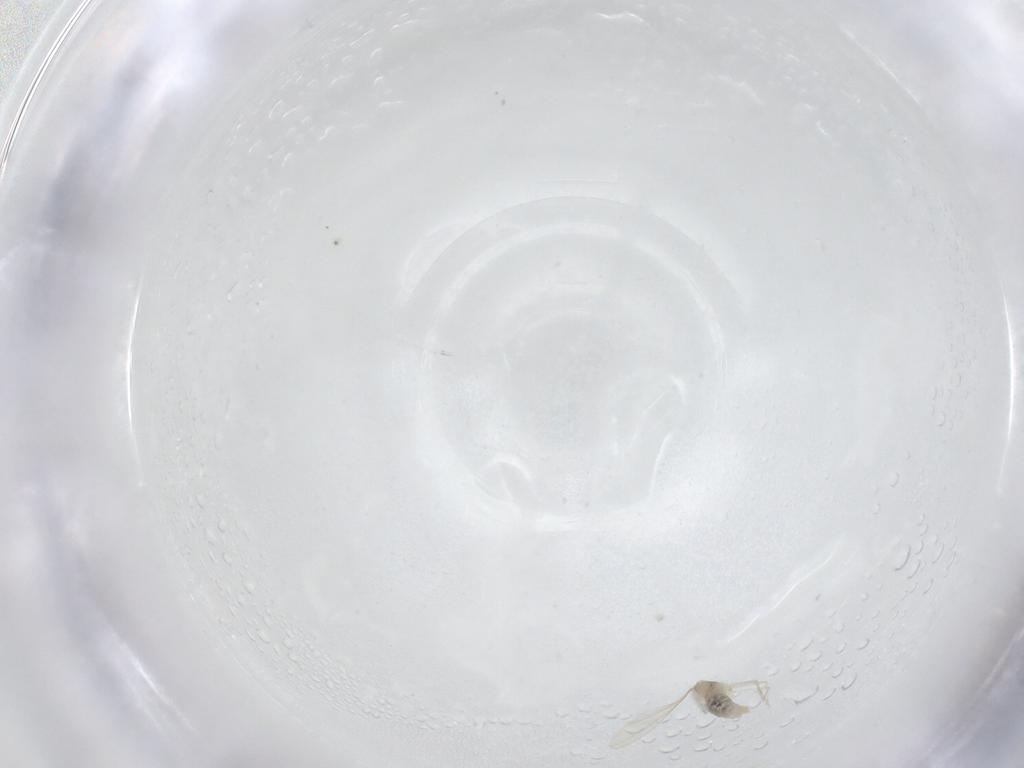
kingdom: Animalia
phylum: Arthropoda
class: Insecta
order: Diptera
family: Cecidomyiidae
